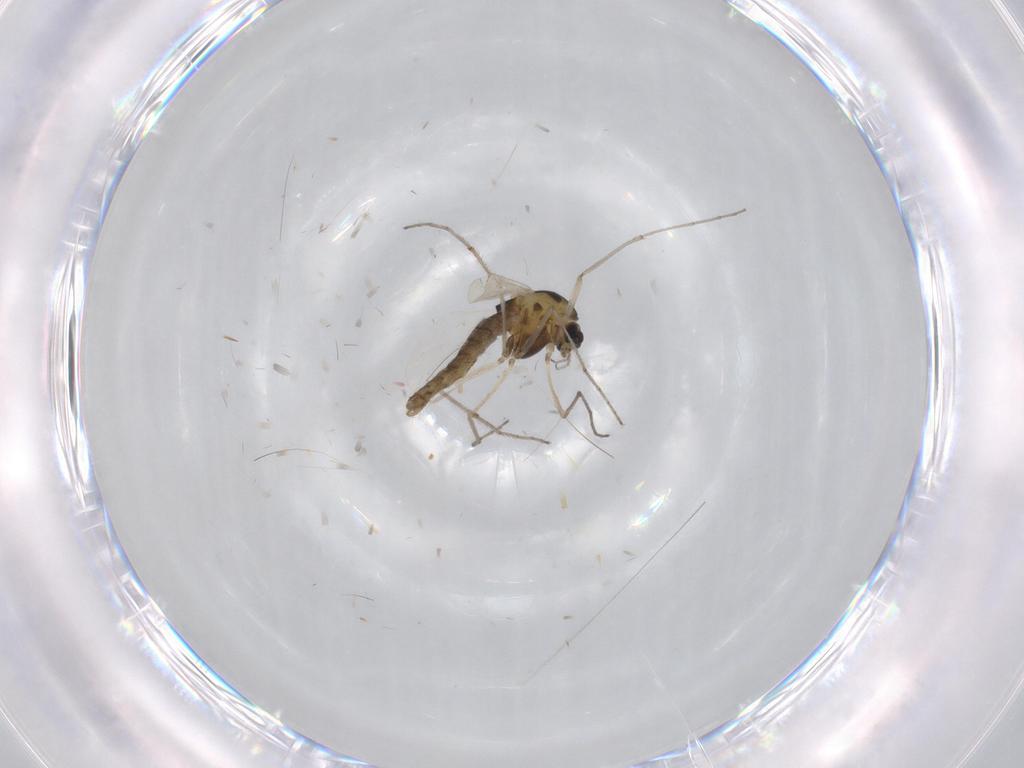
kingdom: Animalia
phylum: Arthropoda
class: Insecta
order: Diptera
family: Chironomidae
